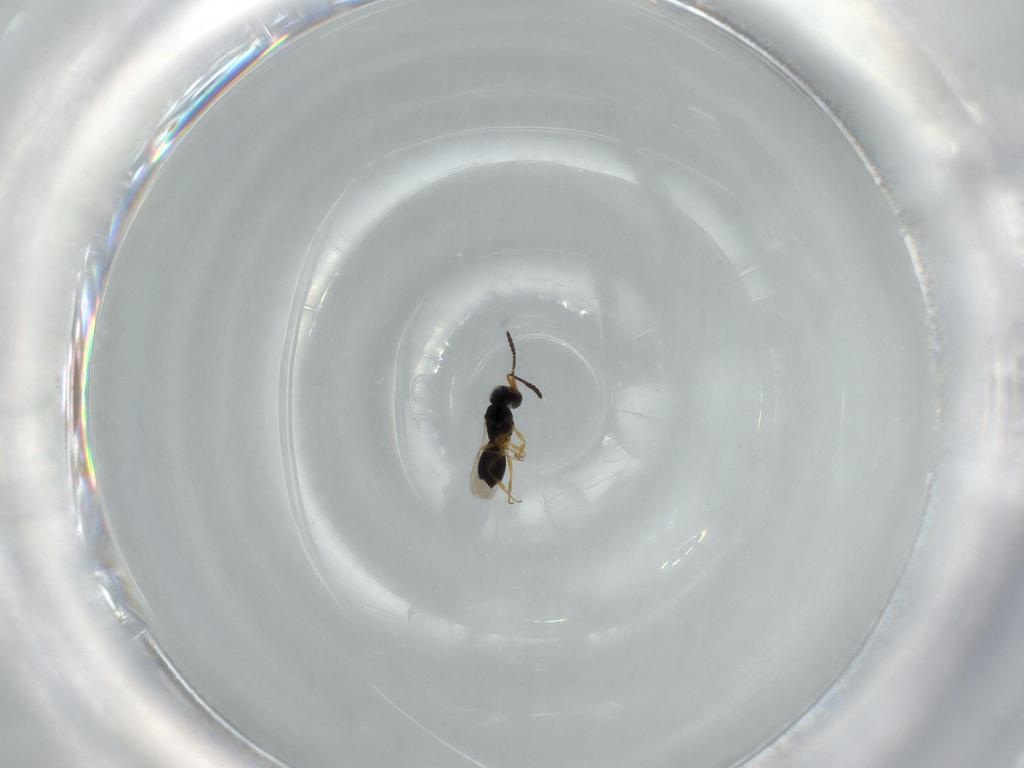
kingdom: Animalia
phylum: Arthropoda
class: Insecta
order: Hymenoptera
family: Scelionidae
